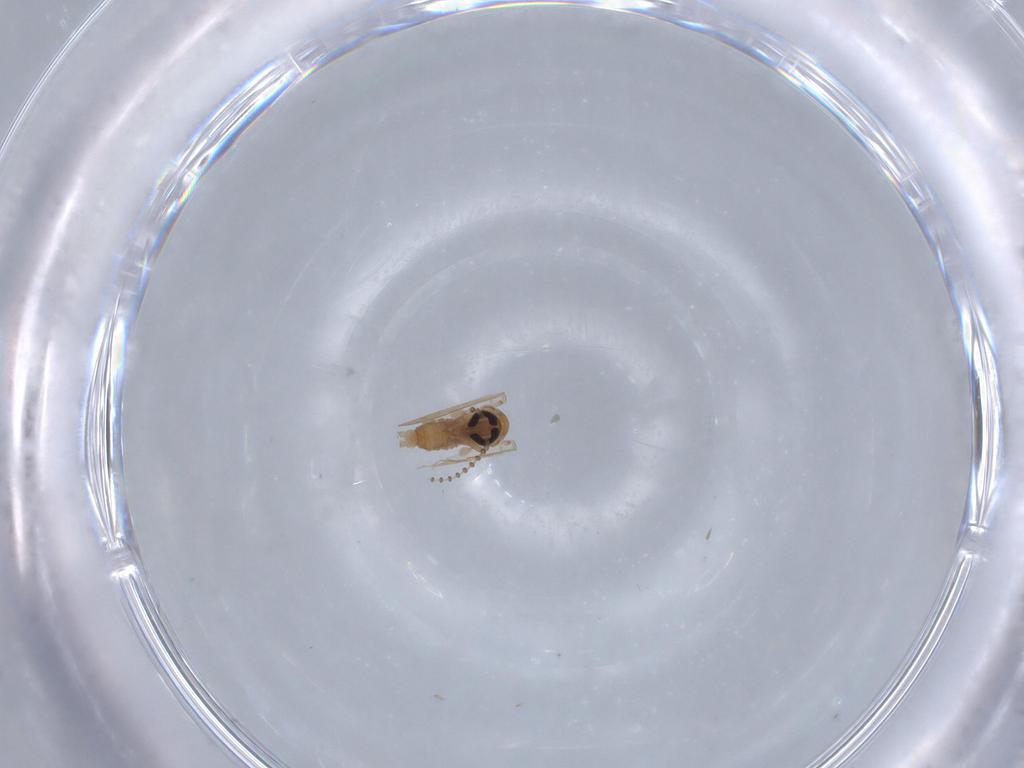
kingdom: Animalia
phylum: Arthropoda
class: Insecta
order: Diptera
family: Psychodidae
